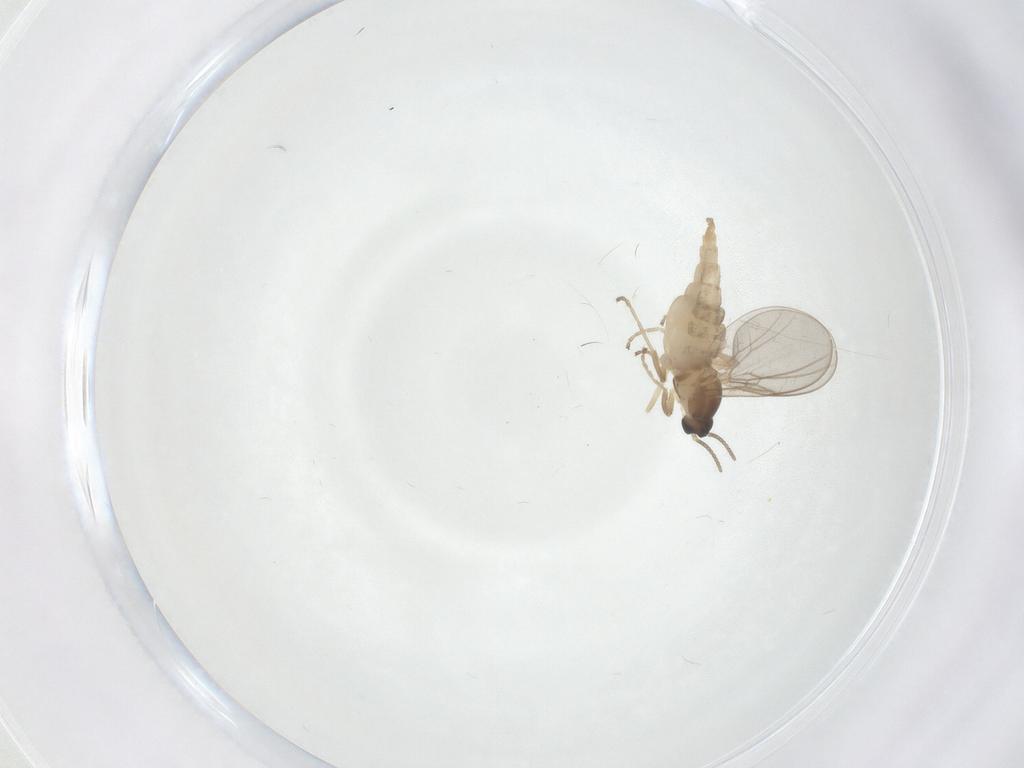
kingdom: Animalia
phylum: Arthropoda
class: Insecta
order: Diptera
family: Cecidomyiidae
